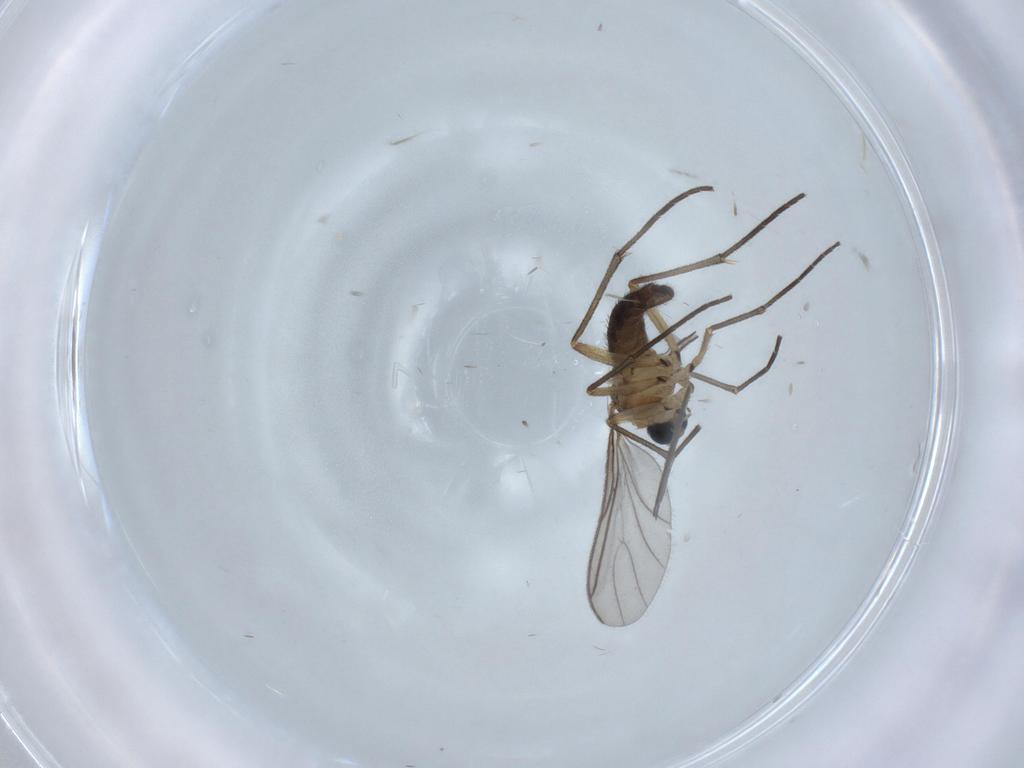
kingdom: Animalia
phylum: Arthropoda
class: Insecta
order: Diptera
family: Sciaridae
